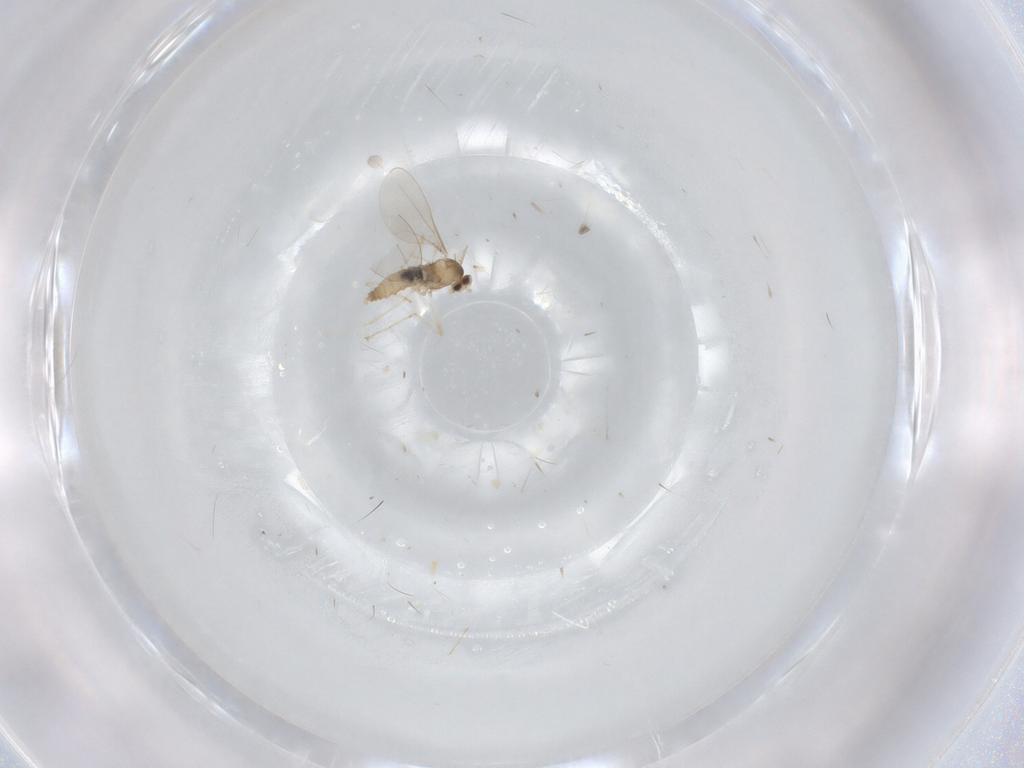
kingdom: Animalia
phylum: Arthropoda
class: Insecta
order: Diptera
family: Cecidomyiidae
